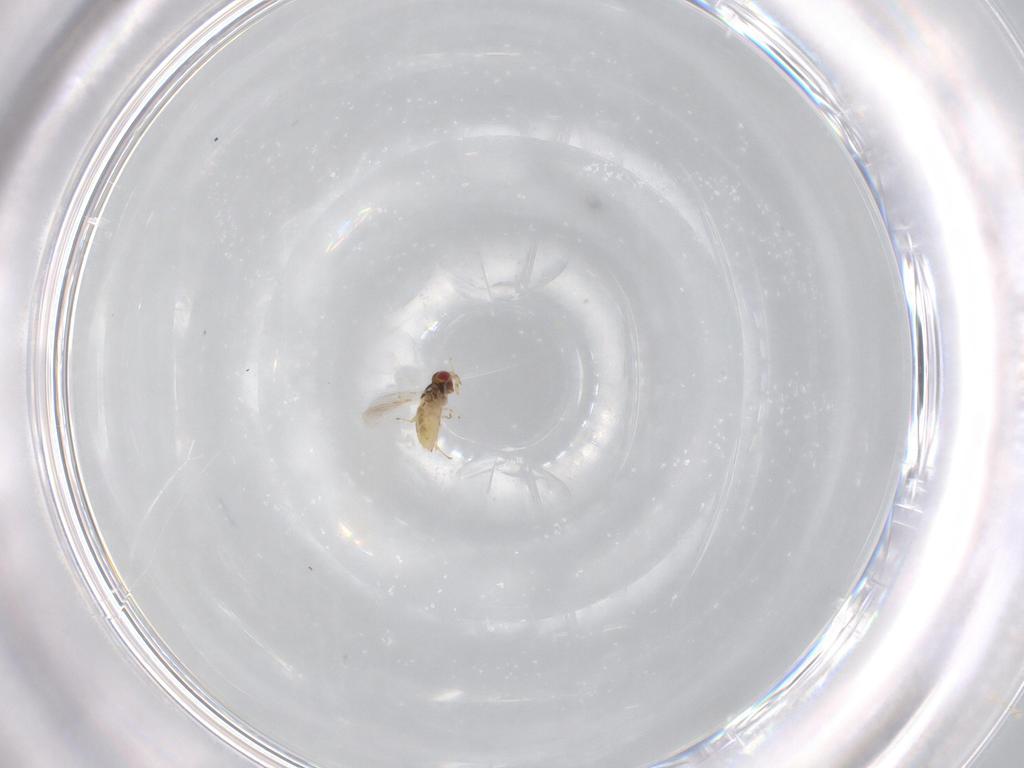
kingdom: Animalia
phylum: Arthropoda
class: Insecta
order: Hymenoptera
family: Trichogrammatidae
